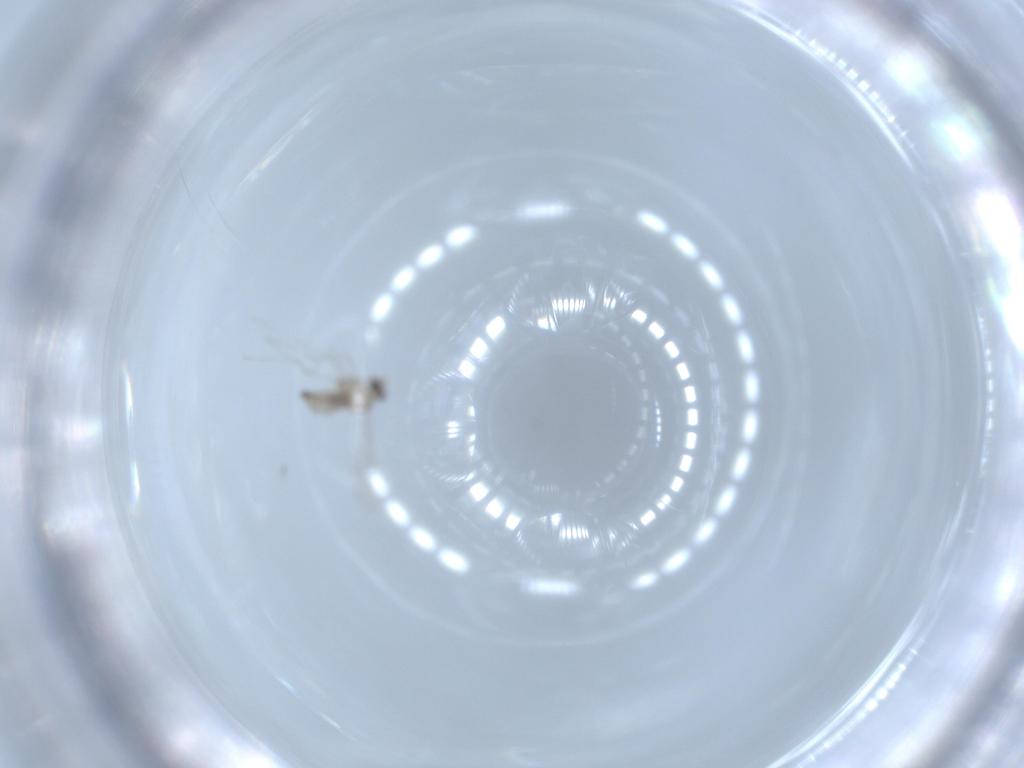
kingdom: Animalia
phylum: Arthropoda
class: Insecta
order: Diptera
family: Cecidomyiidae
